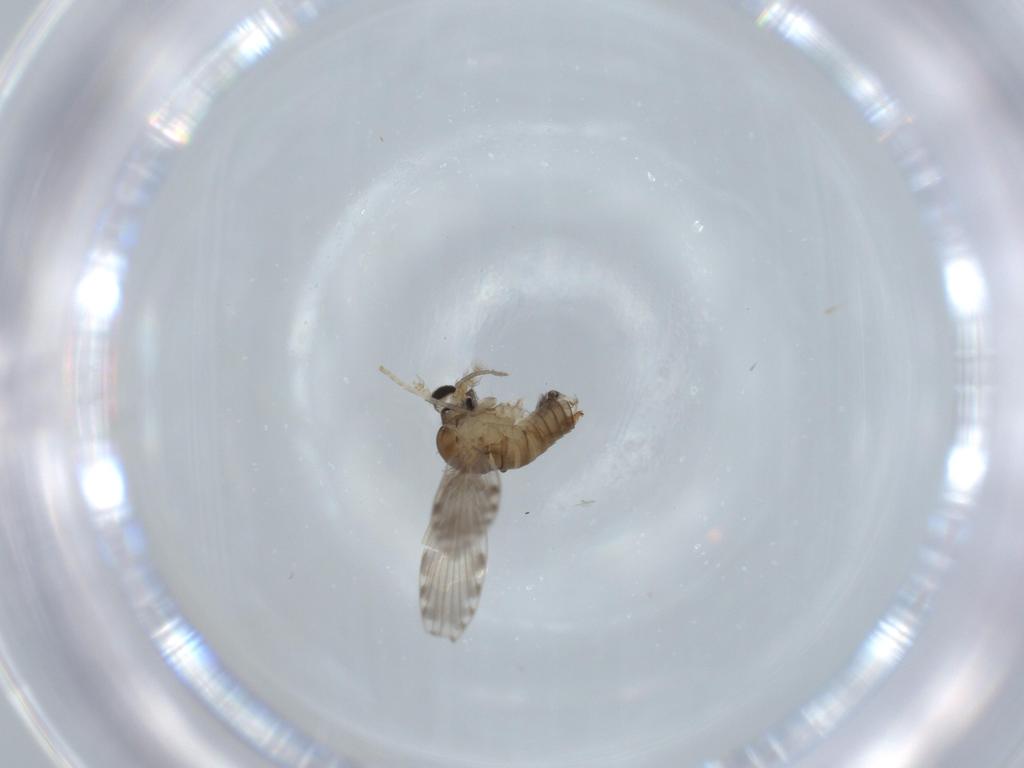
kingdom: Animalia
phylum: Arthropoda
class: Insecta
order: Diptera
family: Psychodidae
